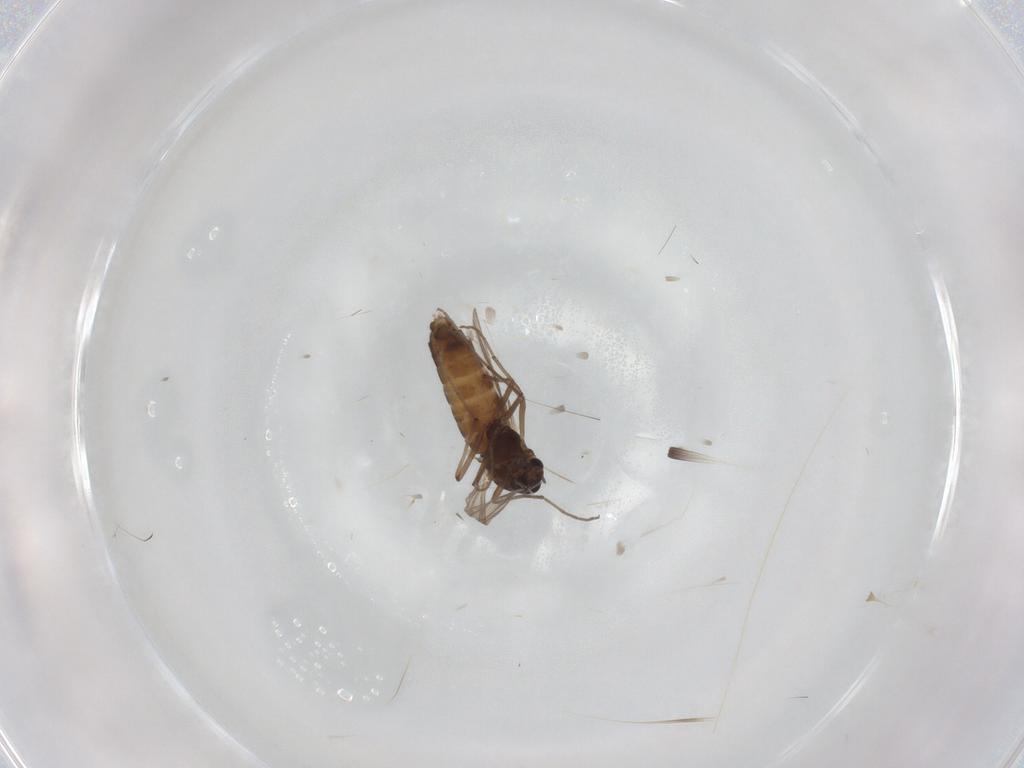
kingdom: Animalia
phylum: Arthropoda
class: Insecta
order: Diptera
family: Chironomidae
